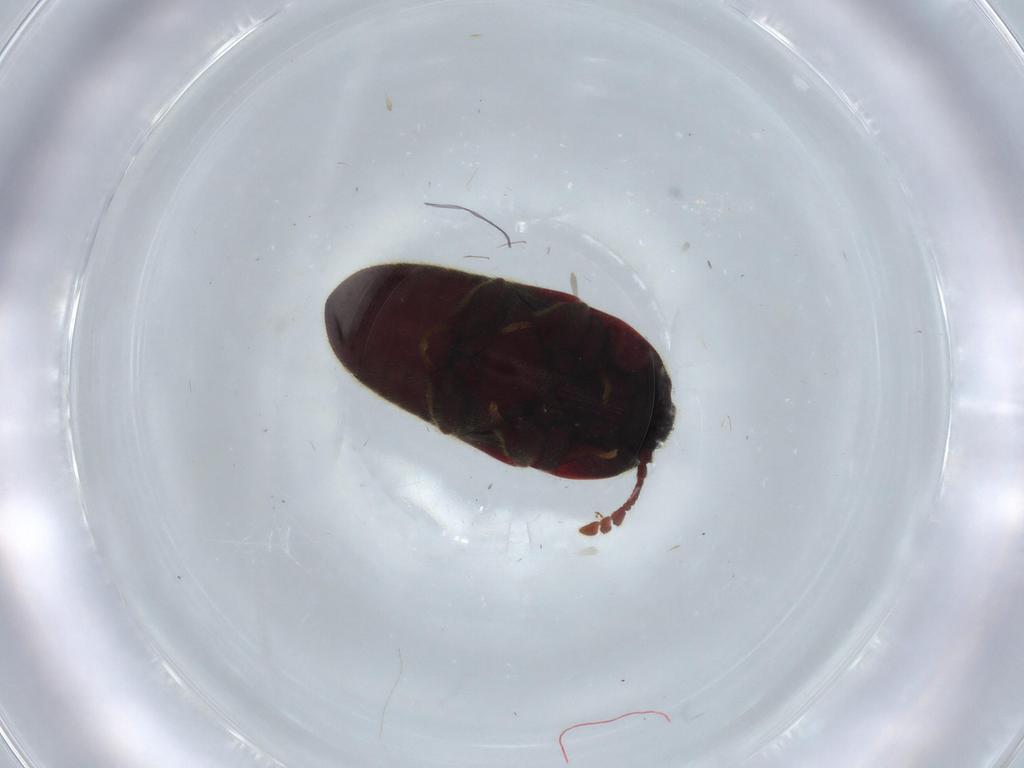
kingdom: Animalia
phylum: Arthropoda
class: Insecta
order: Coleoptera
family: Throscidae
